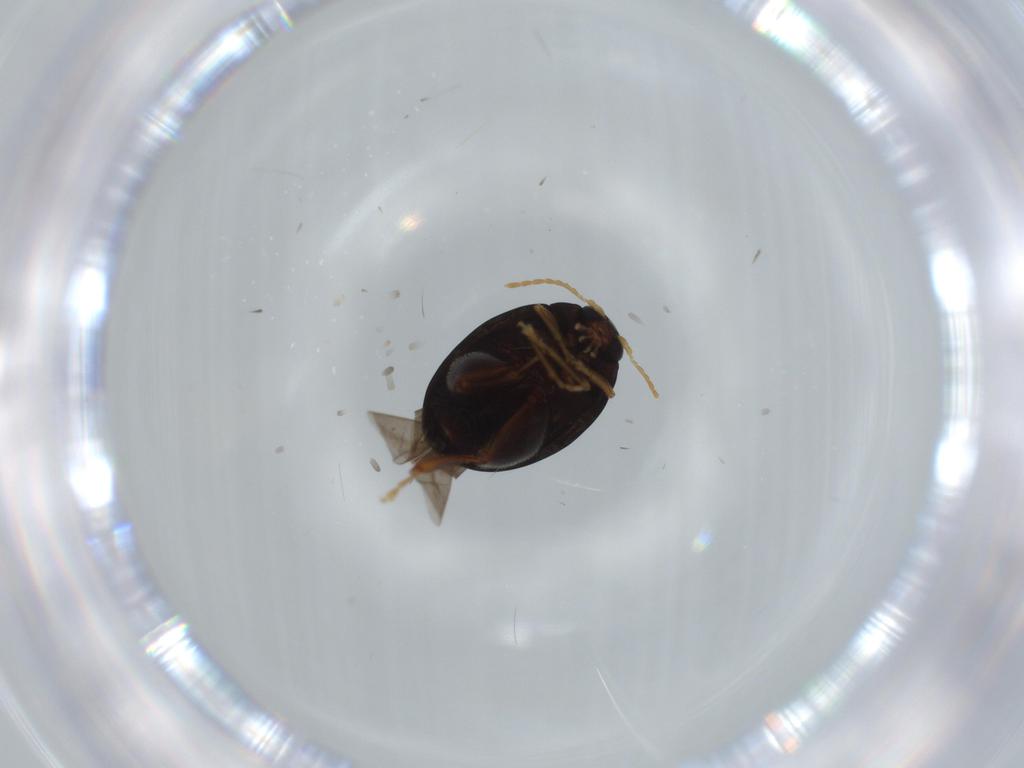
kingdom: Animalia
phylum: Arthropoda
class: Insecta
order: Coleoptera
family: Chrysomelidae
